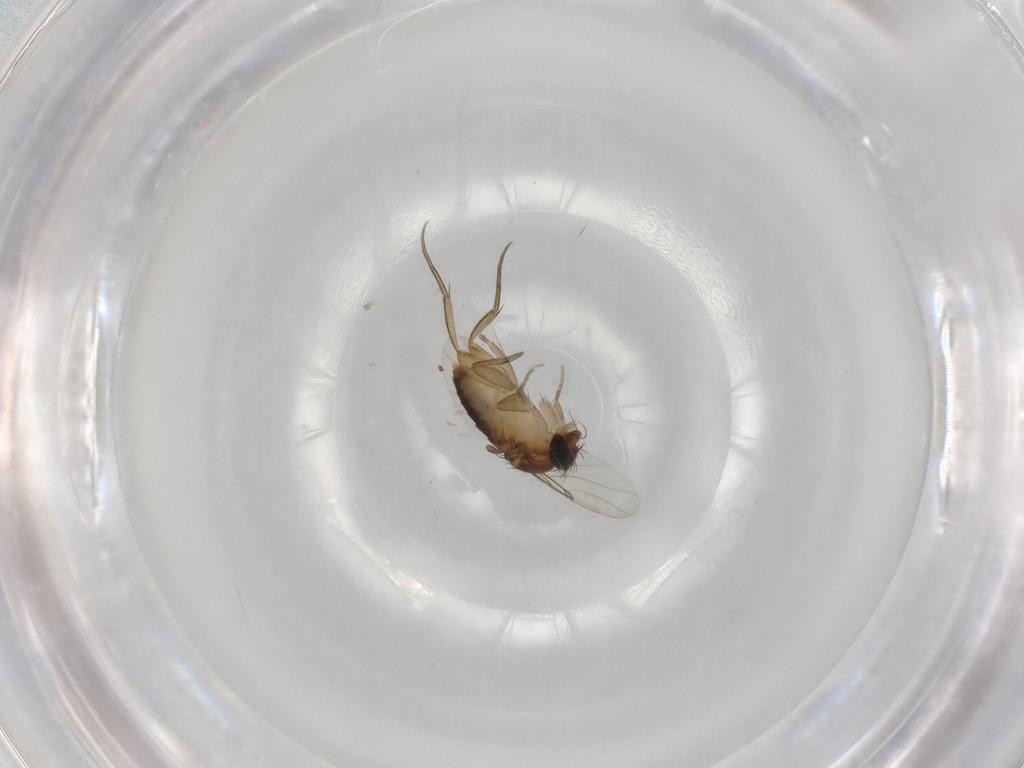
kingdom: Animalia
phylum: Arthropoda
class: Insecta
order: Diptera
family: Phoridae
